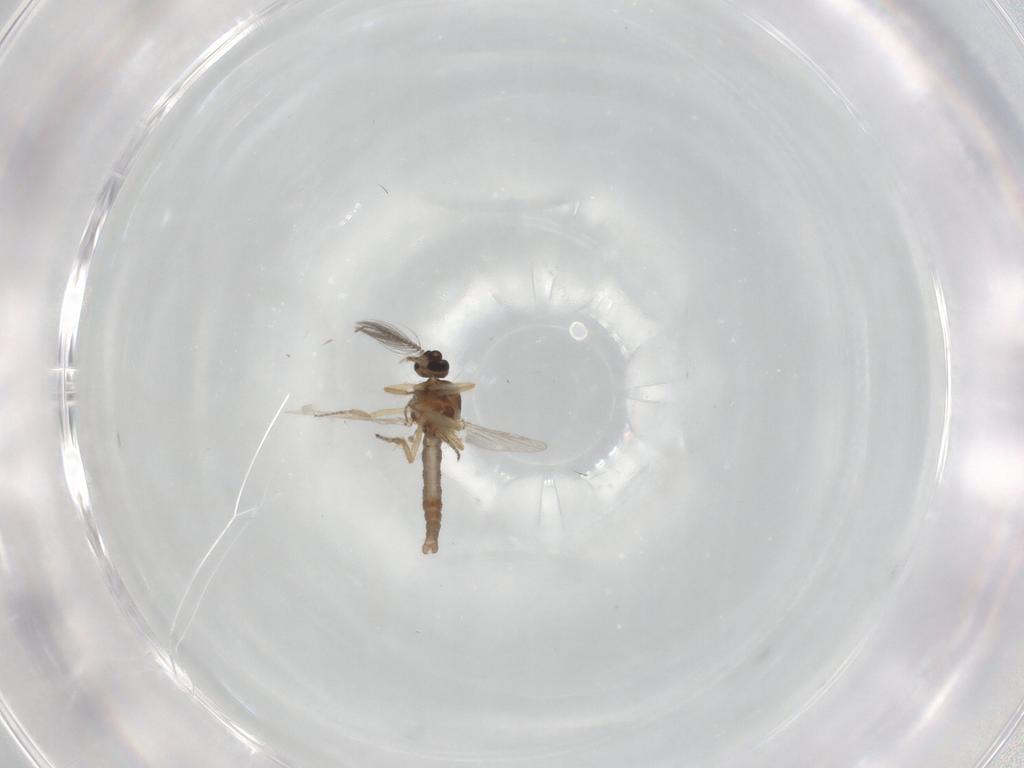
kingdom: Animalia
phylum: Arthropoda
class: Insecta
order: Diptera
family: Ceratopogonidae
